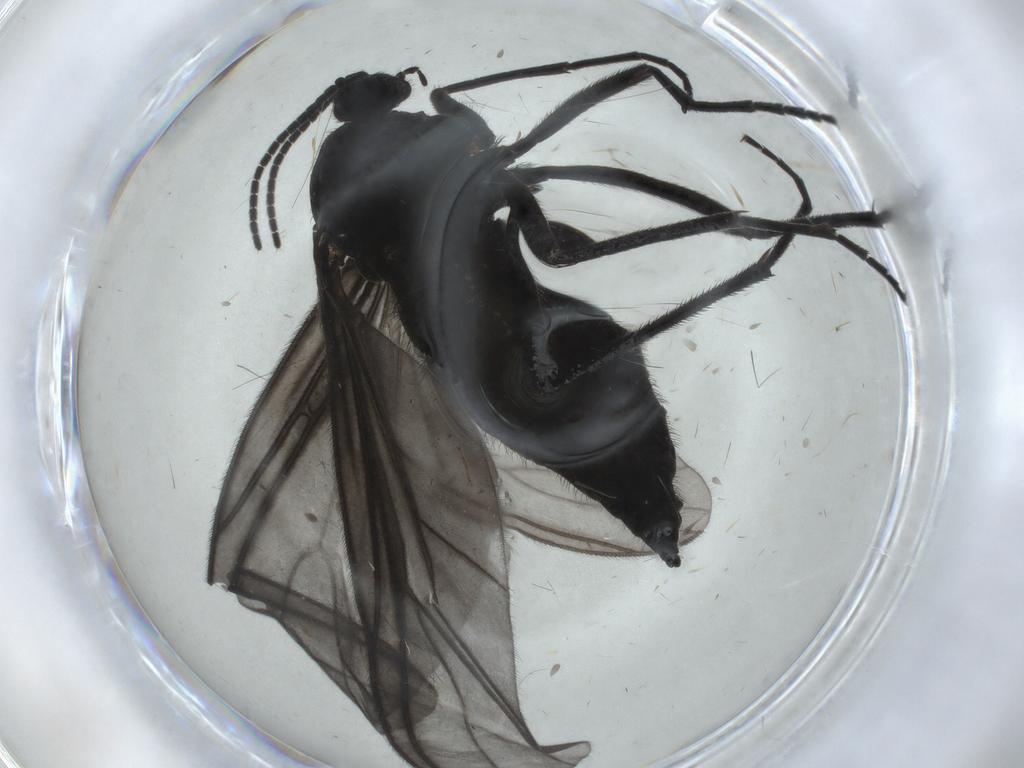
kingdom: Animalia
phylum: Arthropoda
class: Insecta
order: Diptera
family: Sciaridae
